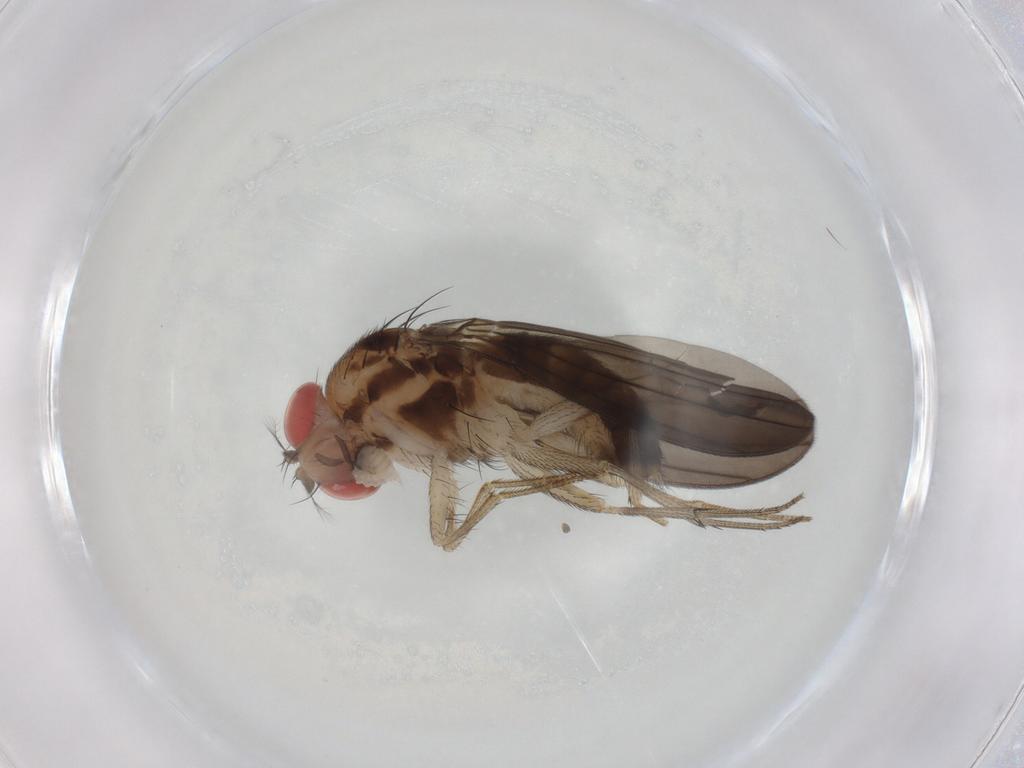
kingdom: Animalia
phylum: Arthropoda
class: Insecta
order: Diptera
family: Drosophilidae
